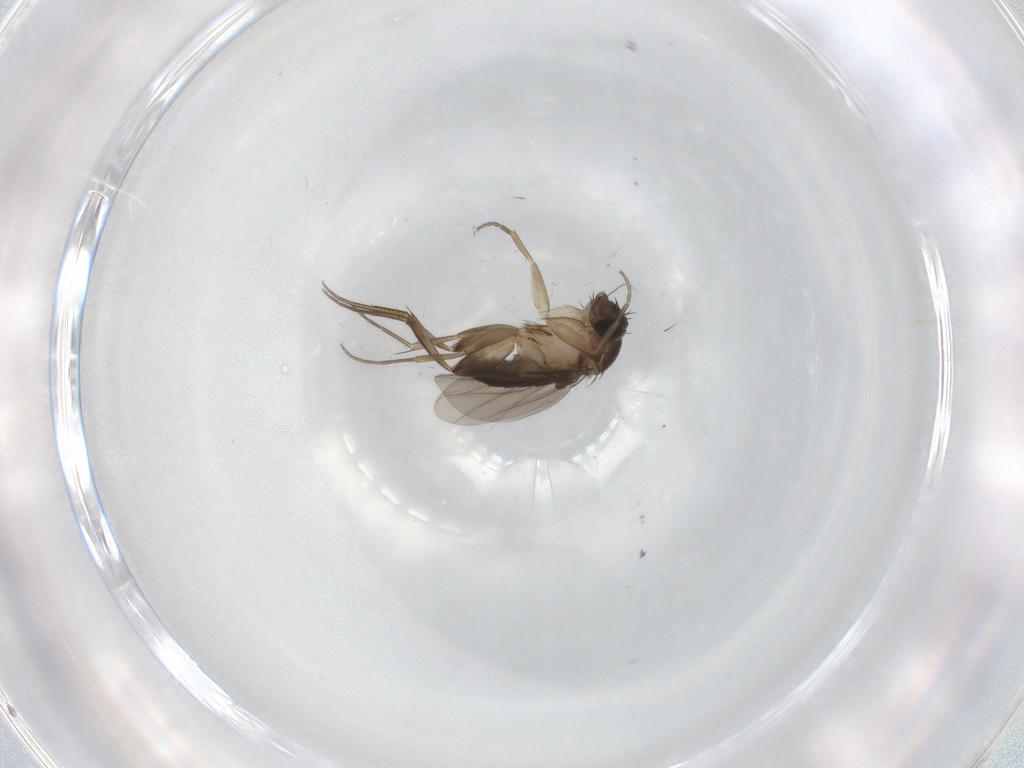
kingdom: Animalia
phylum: Arthropoda
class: Insecta
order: Diptera
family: Phoridae
